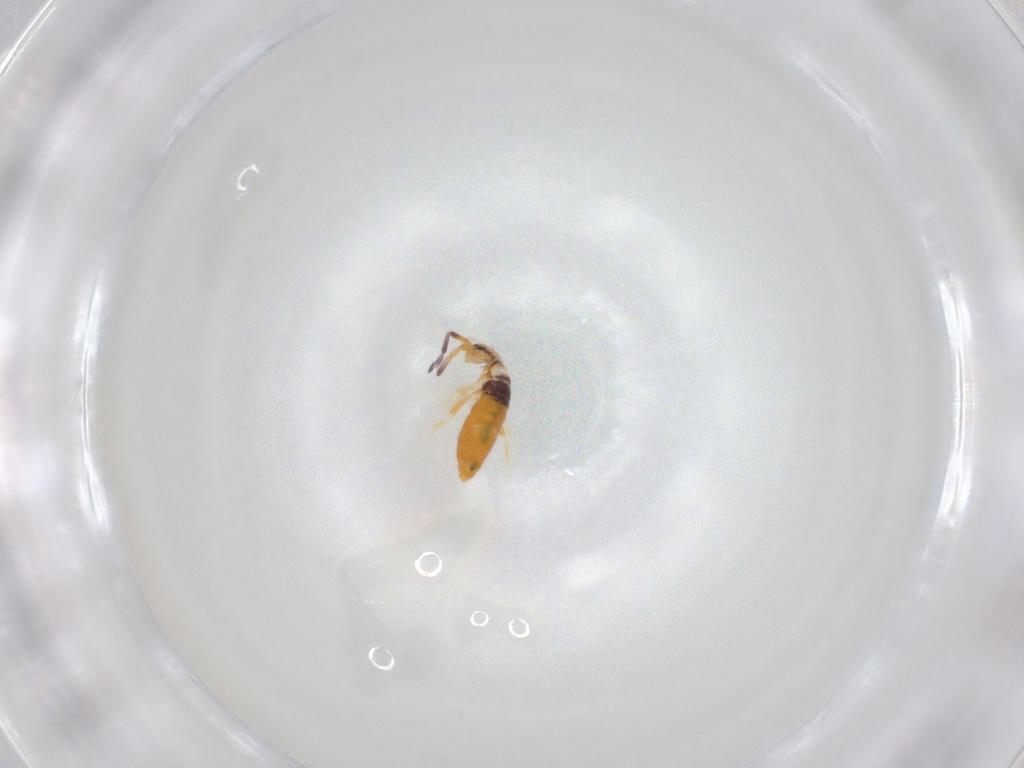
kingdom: Animalia
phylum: Arthropoda
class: Collembola
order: Entomobryomorpha
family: Entomobryidae
